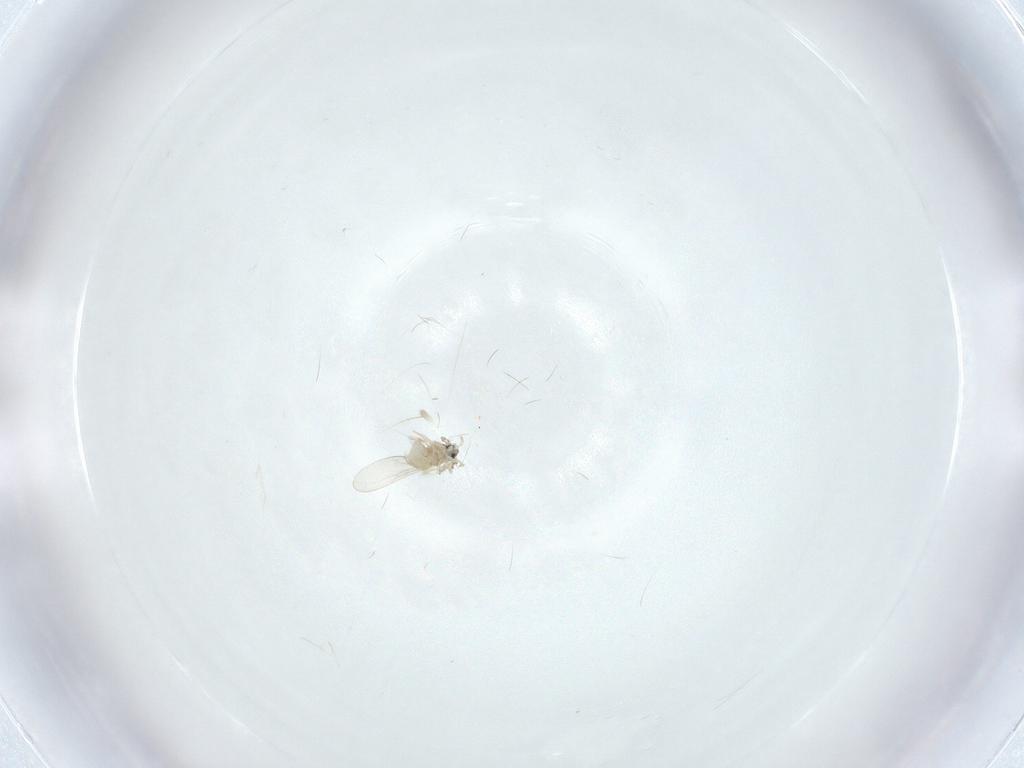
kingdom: Animalia
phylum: Arthropoda
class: Insecta
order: Diptera
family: Cecidomyiidae
